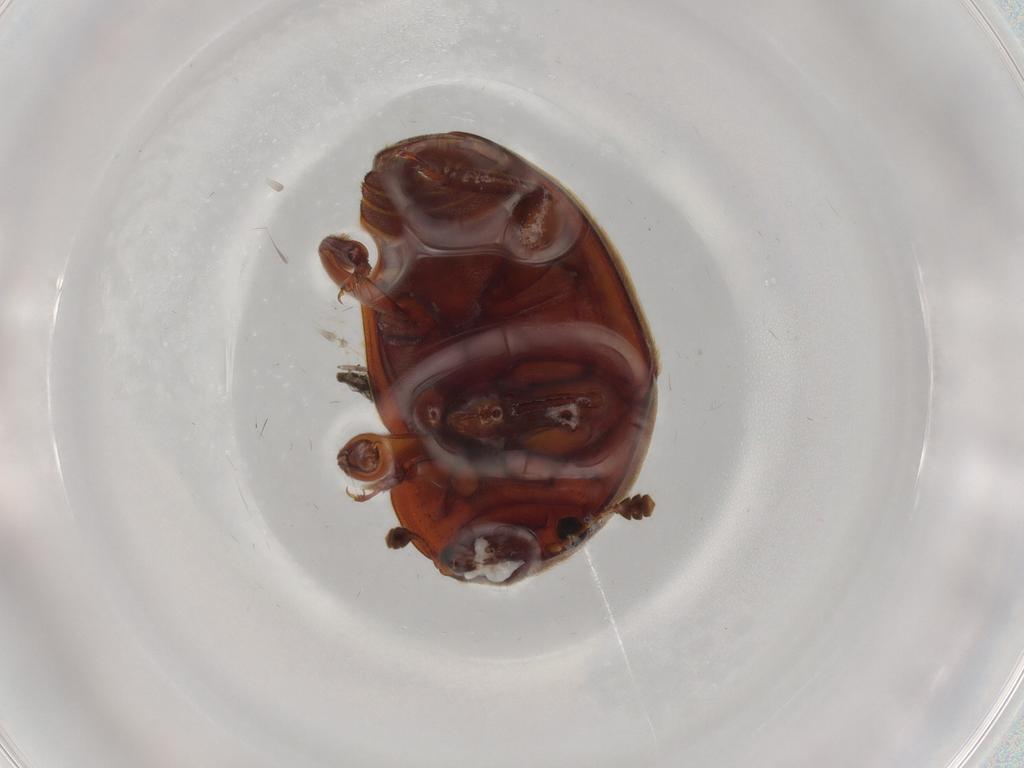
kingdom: Animalia
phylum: Arthropoda
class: Insecta
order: Coleoptera
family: Nitidulidae
